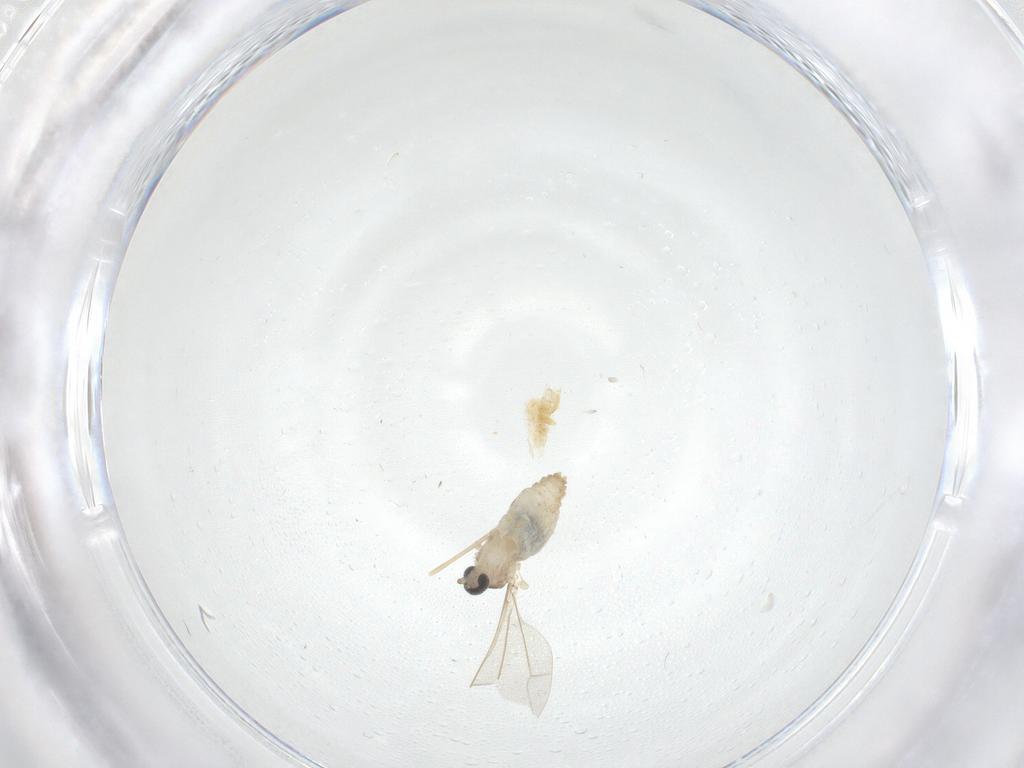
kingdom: Animalia
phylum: Arthropoda
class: Insecta
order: Diptera
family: Cecidomyiidae
